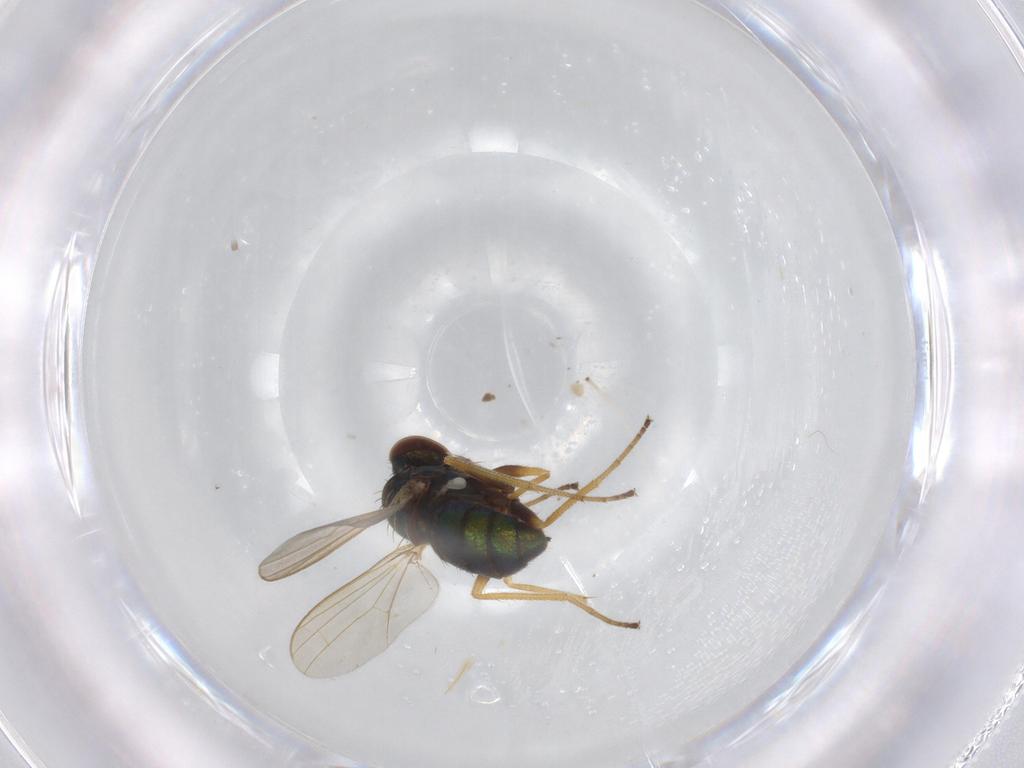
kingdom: Animalia
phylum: Arthropoda
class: Insecta
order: Diptera
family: Dolichopodidae
